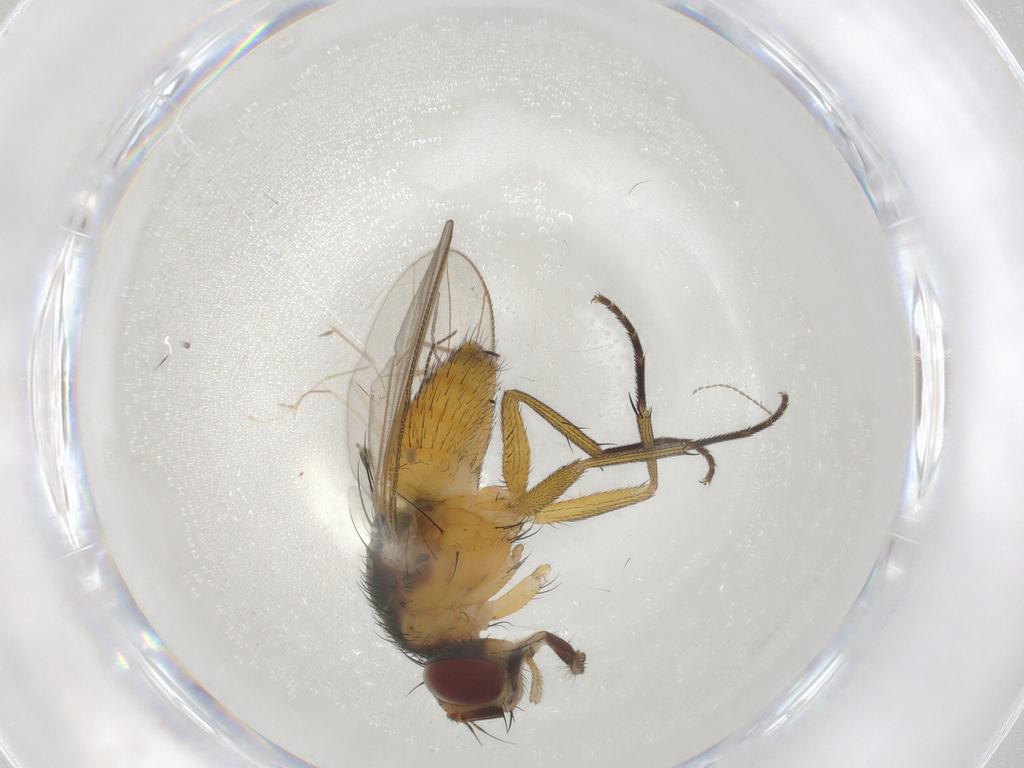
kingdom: Animalia
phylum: Arthropoda
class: Insecta
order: Diptera
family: Muscidae
